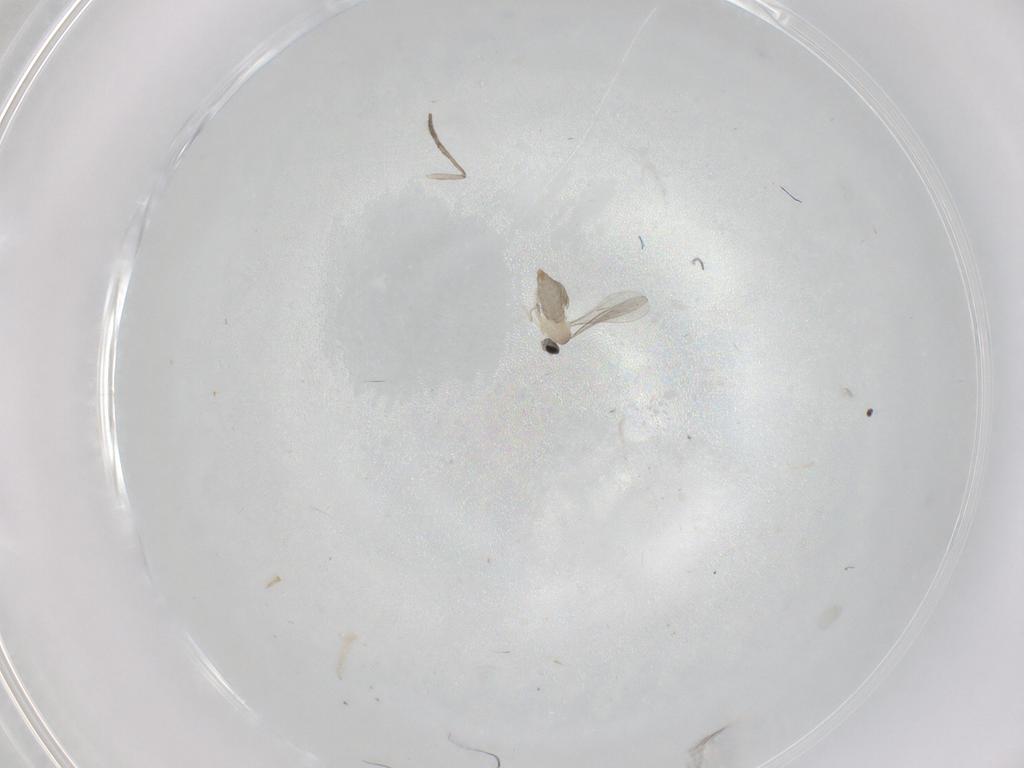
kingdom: Animalia
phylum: Arthropoda
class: Insecta
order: Diptera
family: Cecidomyiidae
